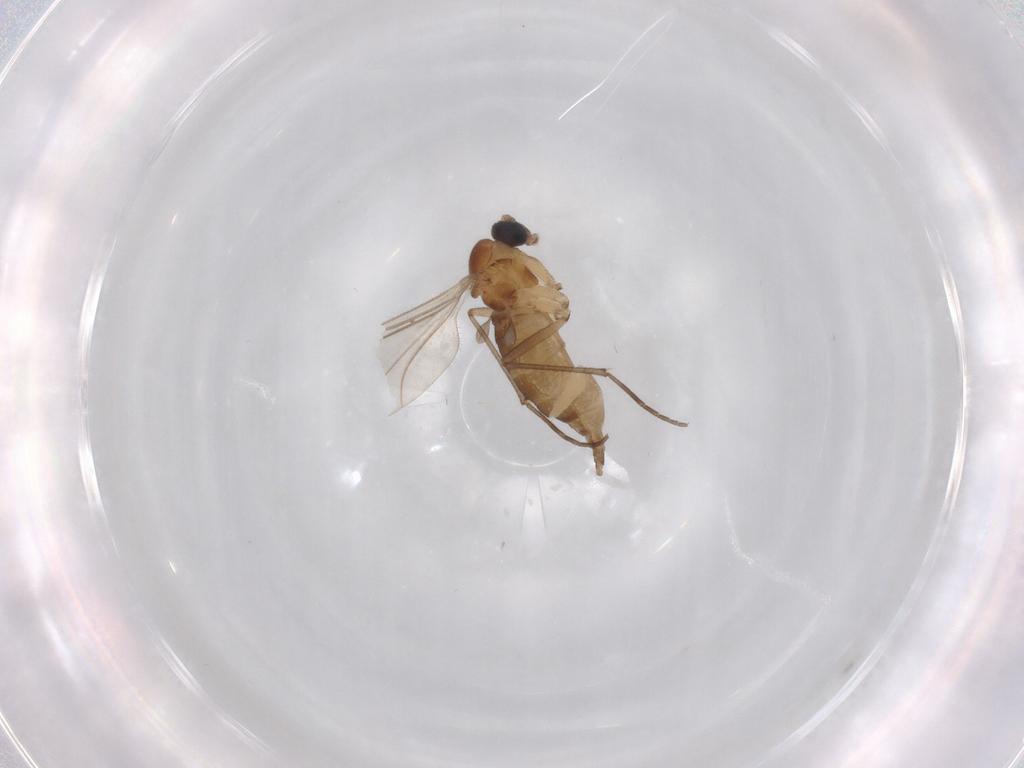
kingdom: Animalia
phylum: Arthropoda
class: Insecta
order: Diptera
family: Sciaridae
